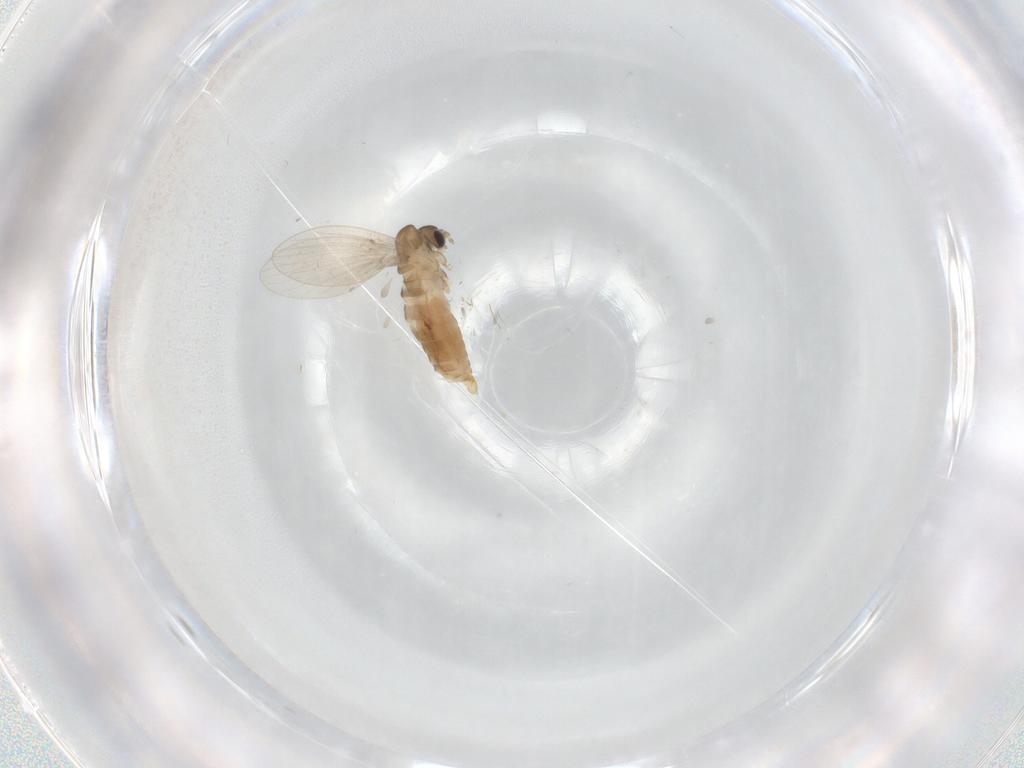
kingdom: Animalia
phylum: Arthropoda
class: Insecta
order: Diptera
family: Psychodidae
